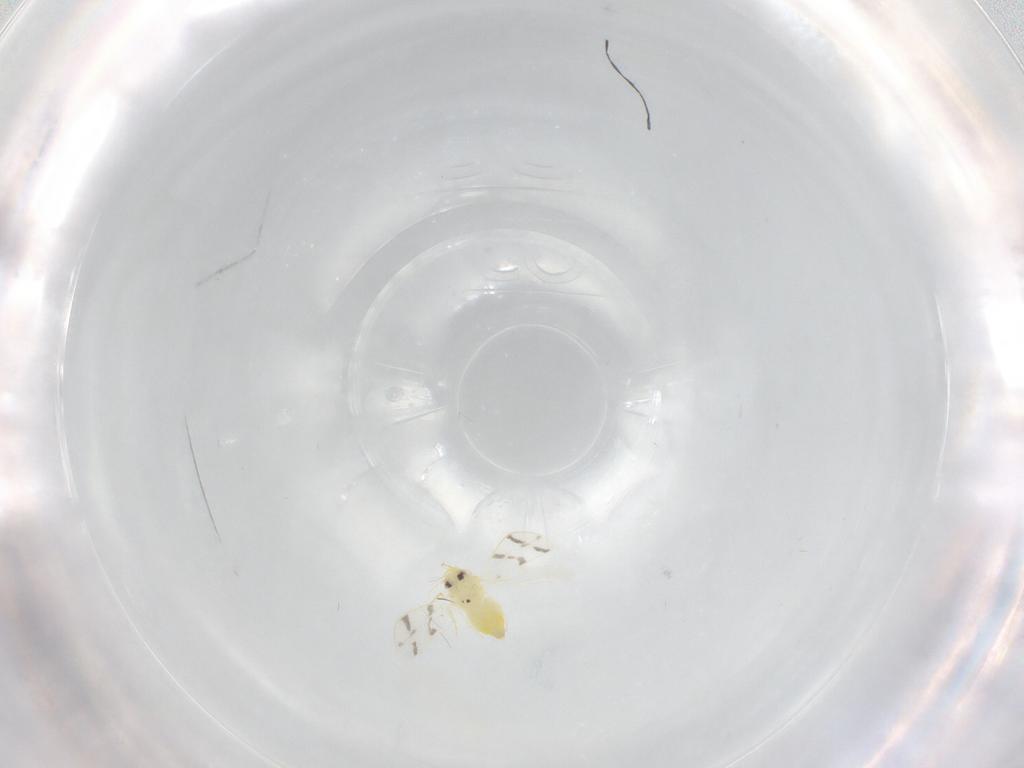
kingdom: Animalia
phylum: Arthropoda
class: Insecta
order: Hemiptera
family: Aleyrodidae
